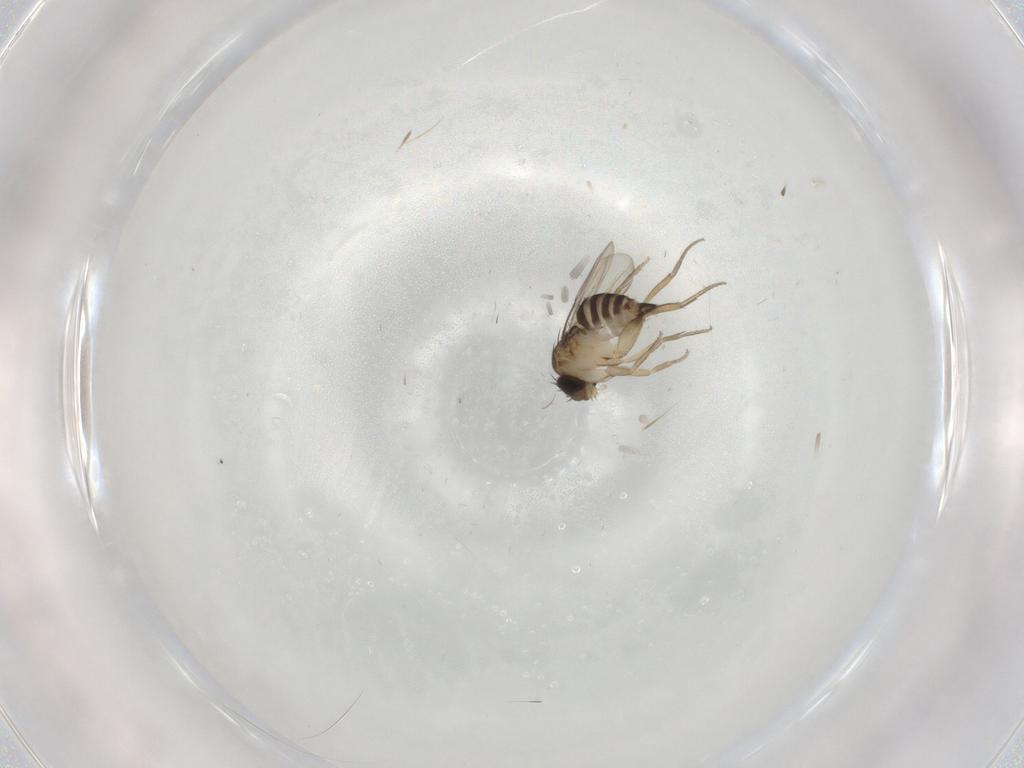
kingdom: Animalia
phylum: Arthropoda
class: Insecta
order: Diptera
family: Phoridae
